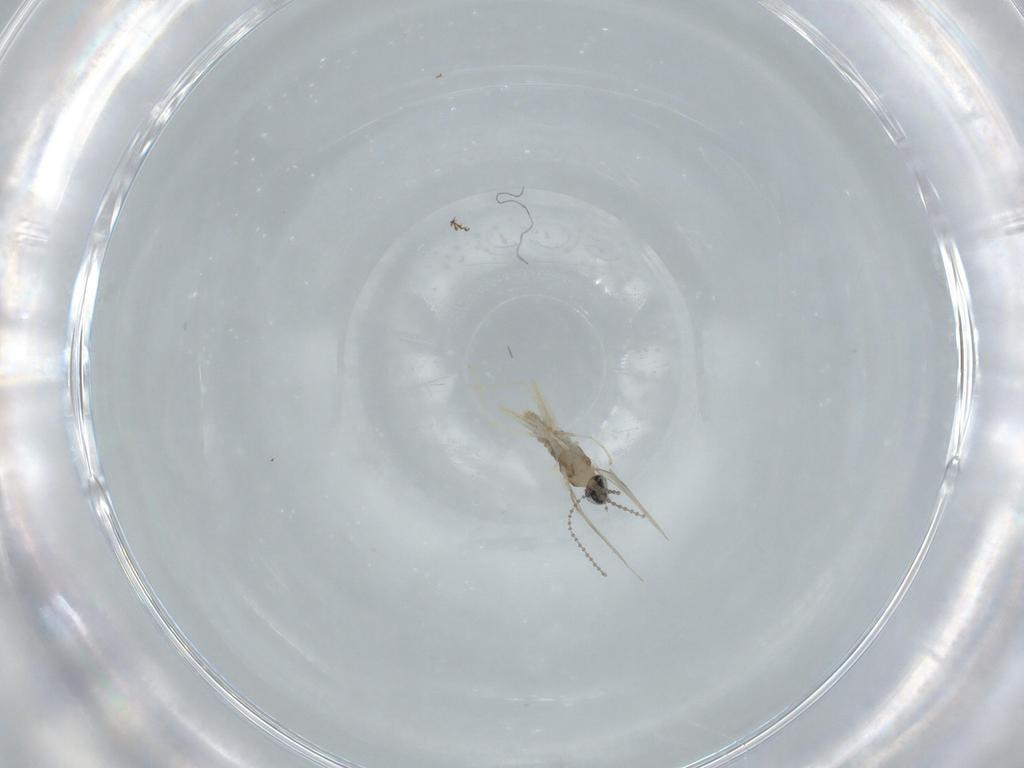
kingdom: Animalia
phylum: Arthropoda
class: Insecta
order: Diptera
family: Cecidomyiidae
